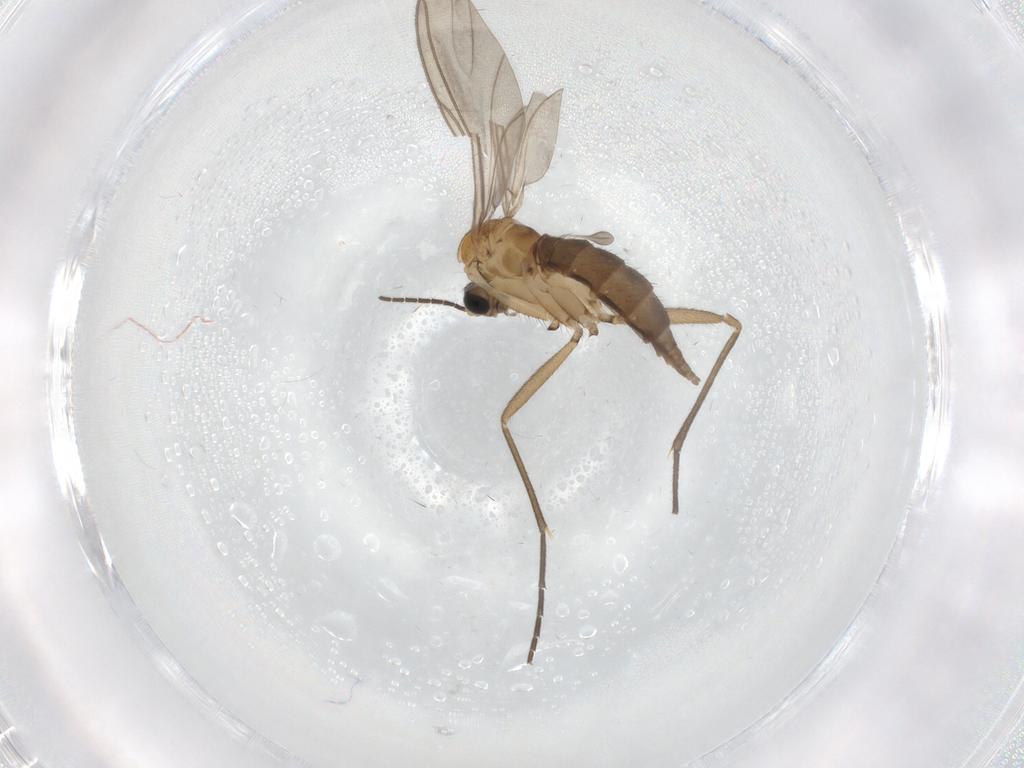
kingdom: Animalia
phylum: Arthropoda
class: Insecta
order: Diptera
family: Sciaridae
